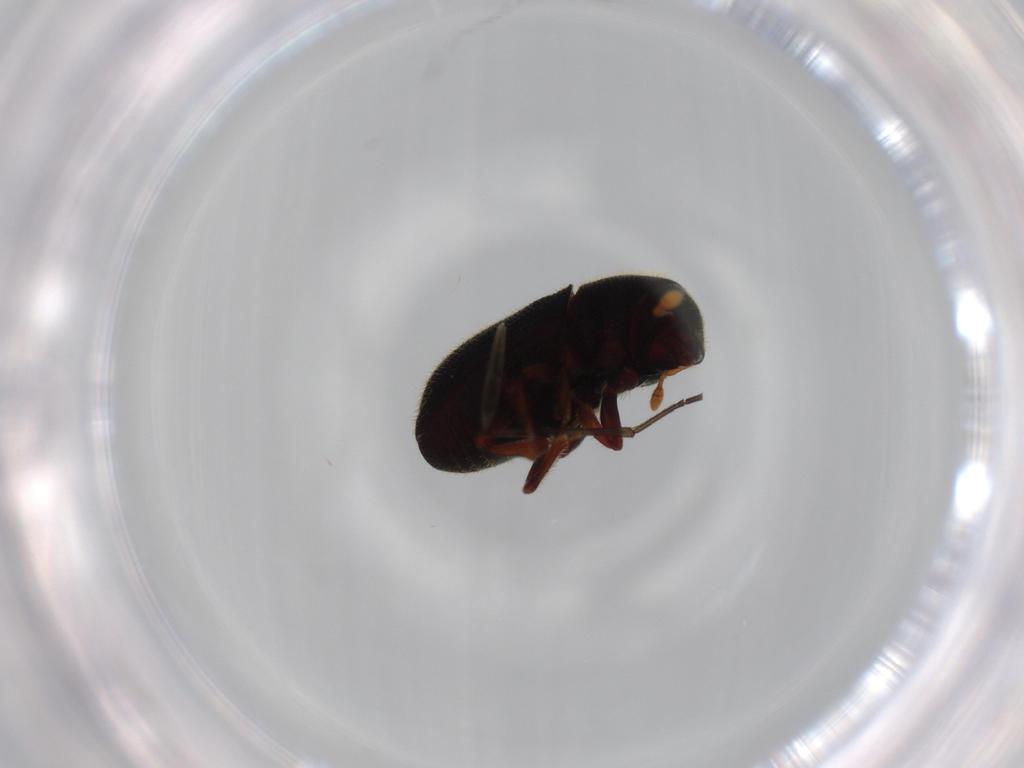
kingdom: Animalia
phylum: Arthropoda
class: Insecta
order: Coleoptera
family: Curculionidae
